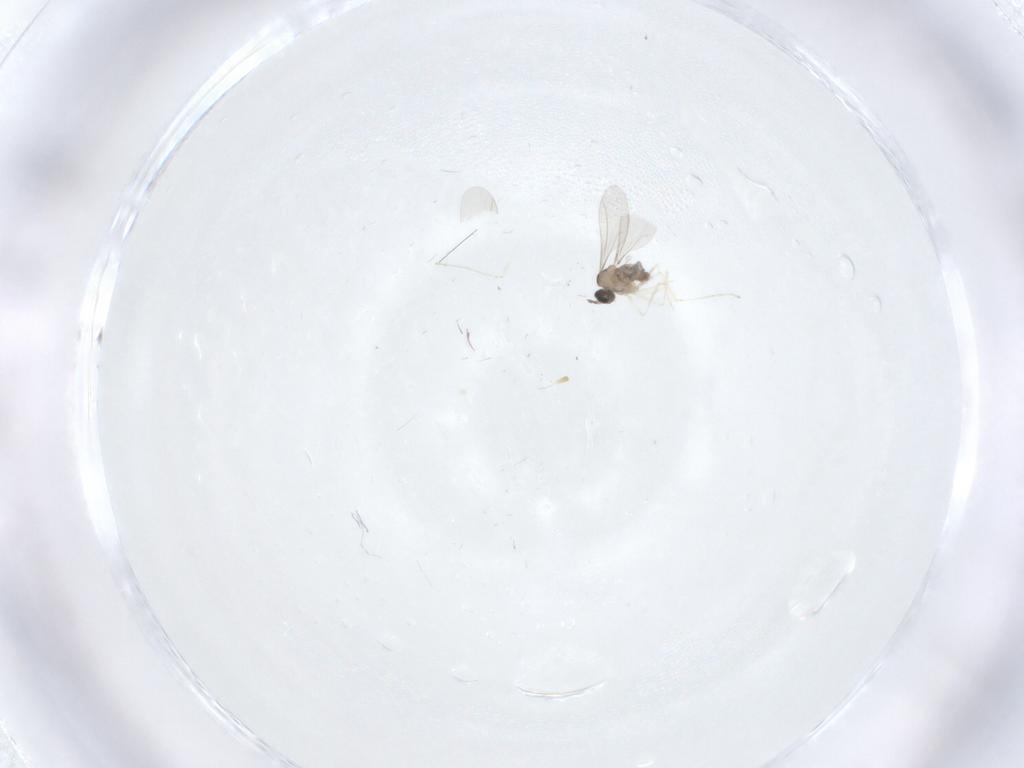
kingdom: Animalia
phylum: Arthropoda
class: Insecta
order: Diptera
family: Cecidomyiidae
